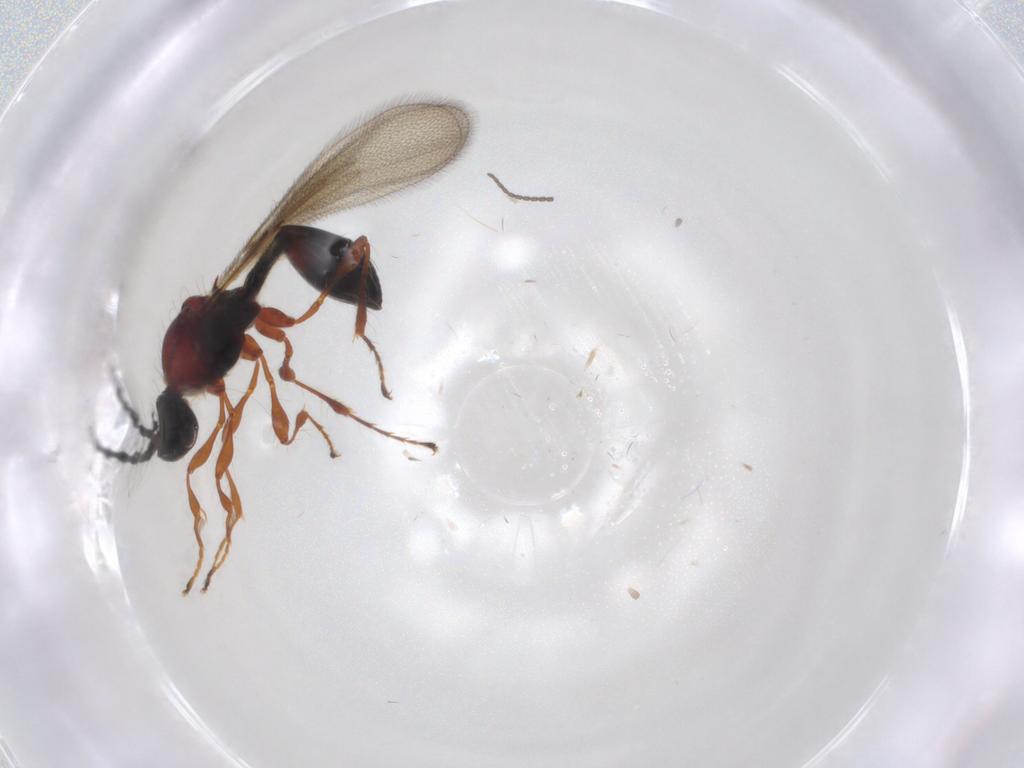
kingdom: Animalia
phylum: Arthropoda
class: Insecta
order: Hymenoptera
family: Diapriidae
